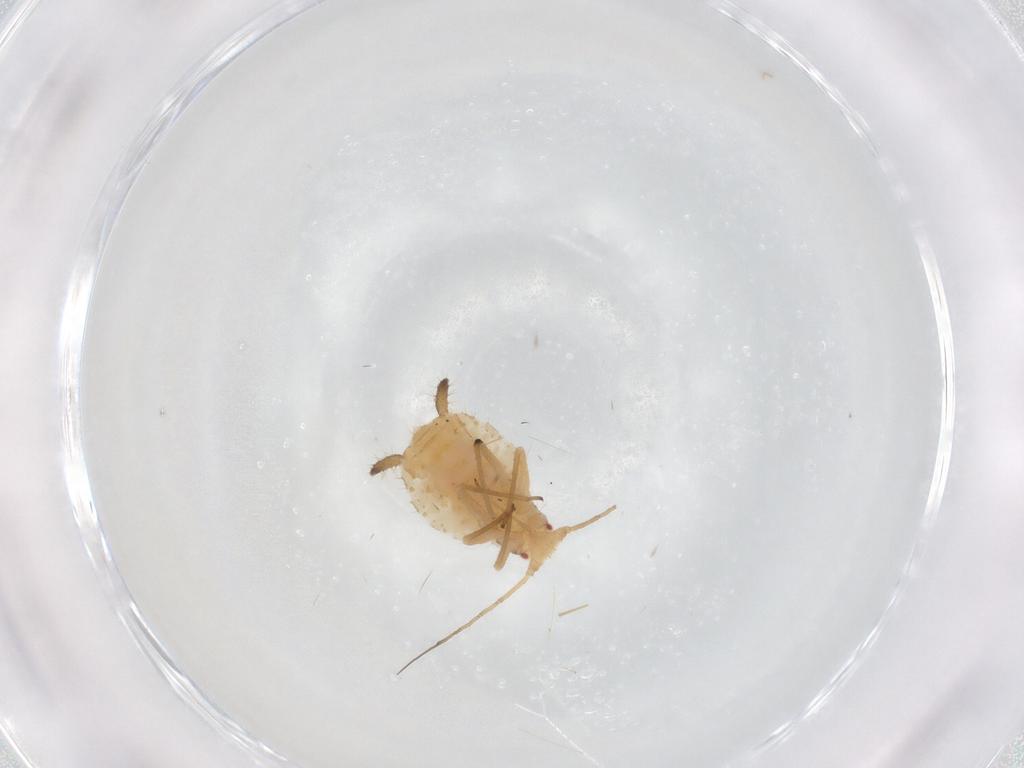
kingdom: Animalia
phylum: Arthropoda
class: Insecta
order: Hemiptera
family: Aphididae
